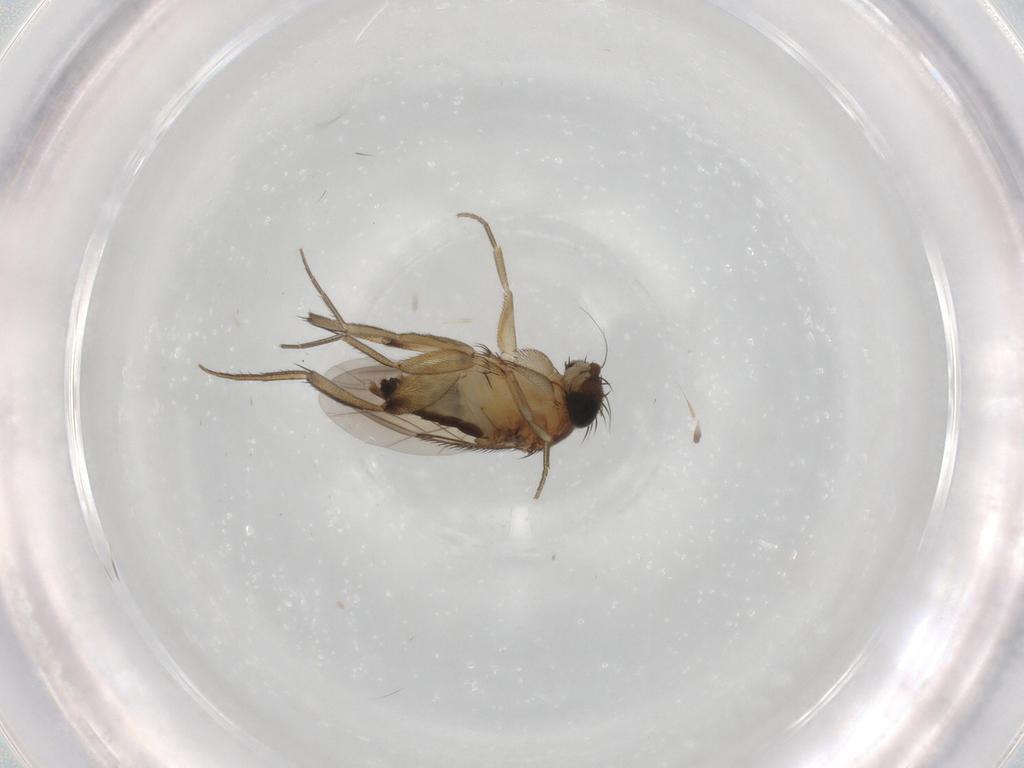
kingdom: Animalia
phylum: Arthropoda
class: Insecta
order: Diptera
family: Phoridae
